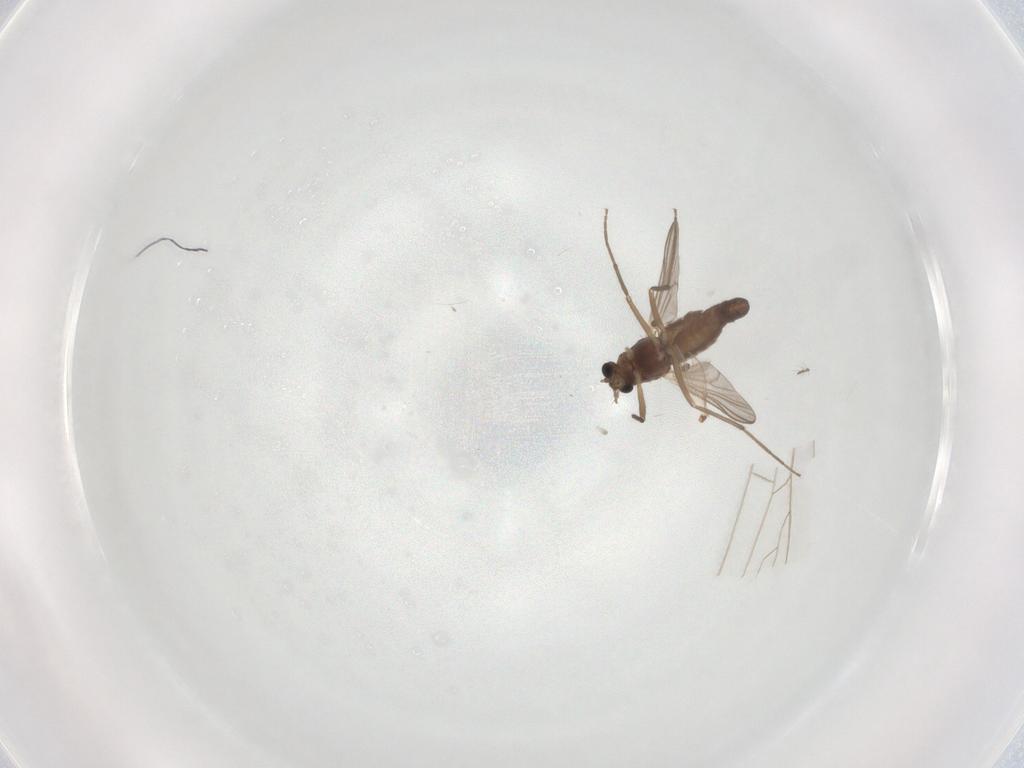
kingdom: Animalia
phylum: Arthropoda
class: Insecta
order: Diptera
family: Chironomidae
